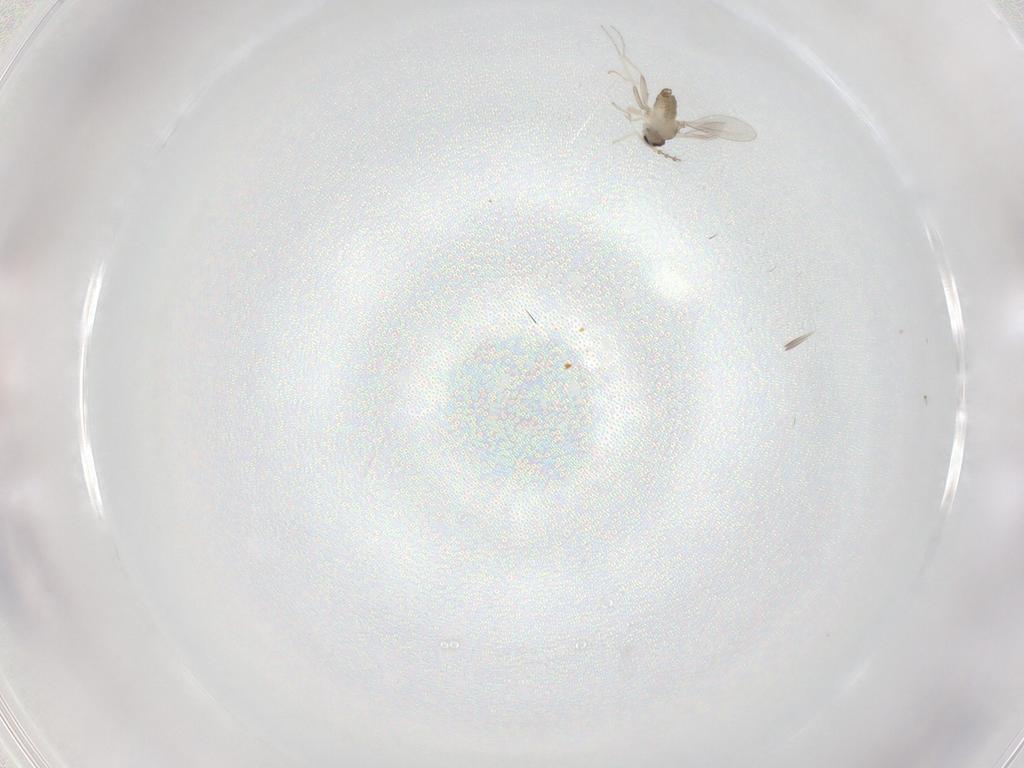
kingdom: Animalia
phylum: Arthropoda
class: Insecta
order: Diptera
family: Cecidomyiidae
